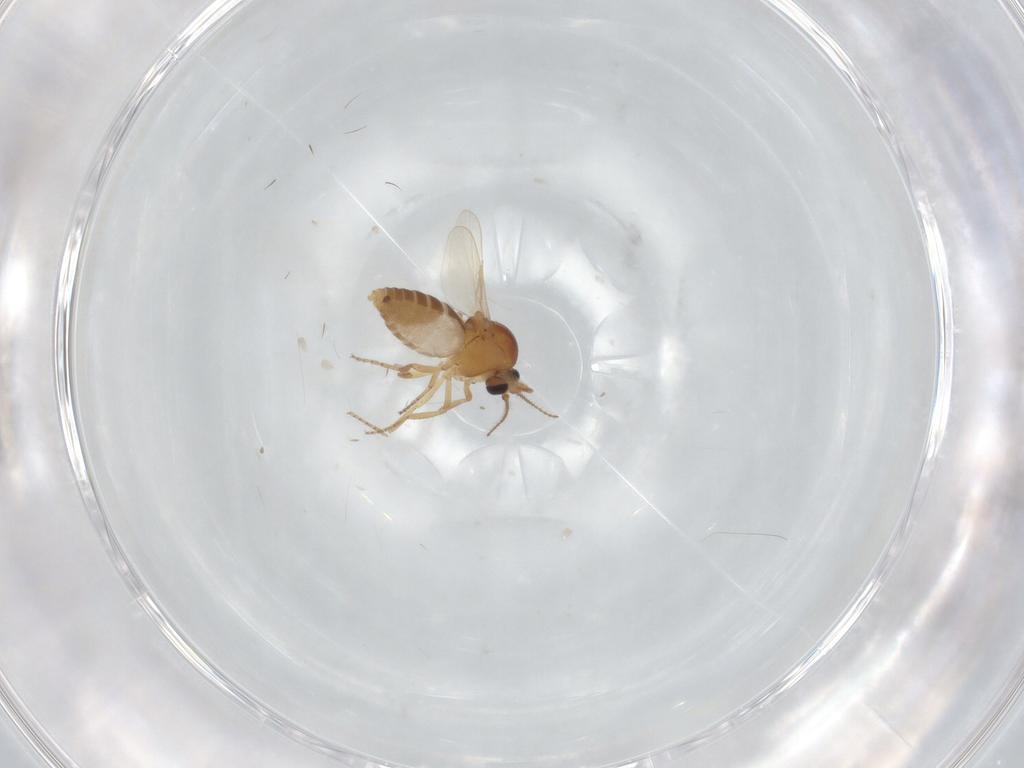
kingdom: Animalia
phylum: Arthropoda
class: Insecta
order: Diptera
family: Ceratopogonidae
